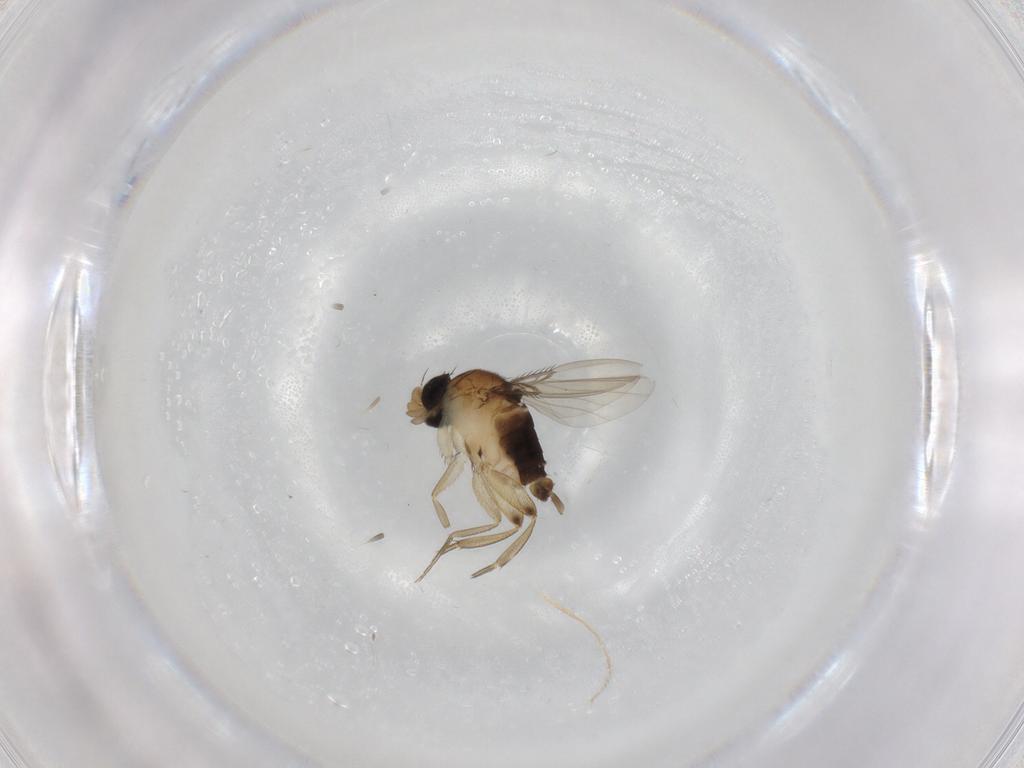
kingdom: Animalia
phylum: Arthropoda
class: Insecta
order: Diptera
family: Phoridae
